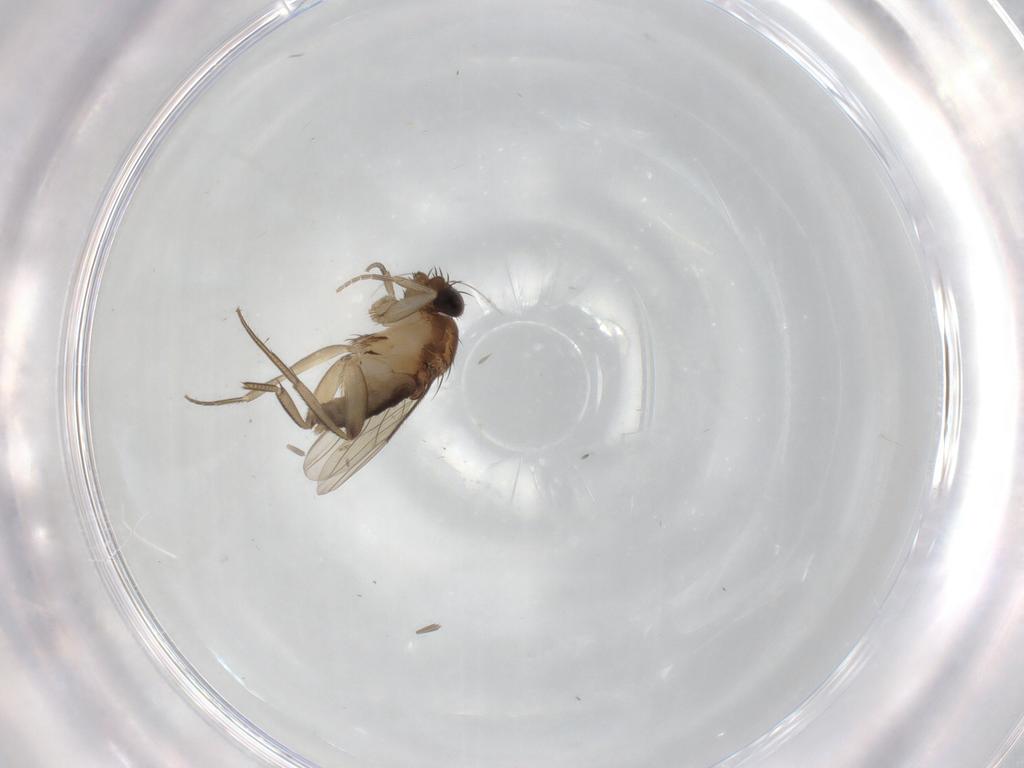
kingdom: Animalia
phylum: Arthropoda
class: Insecta
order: Diptera
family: Phoridae
